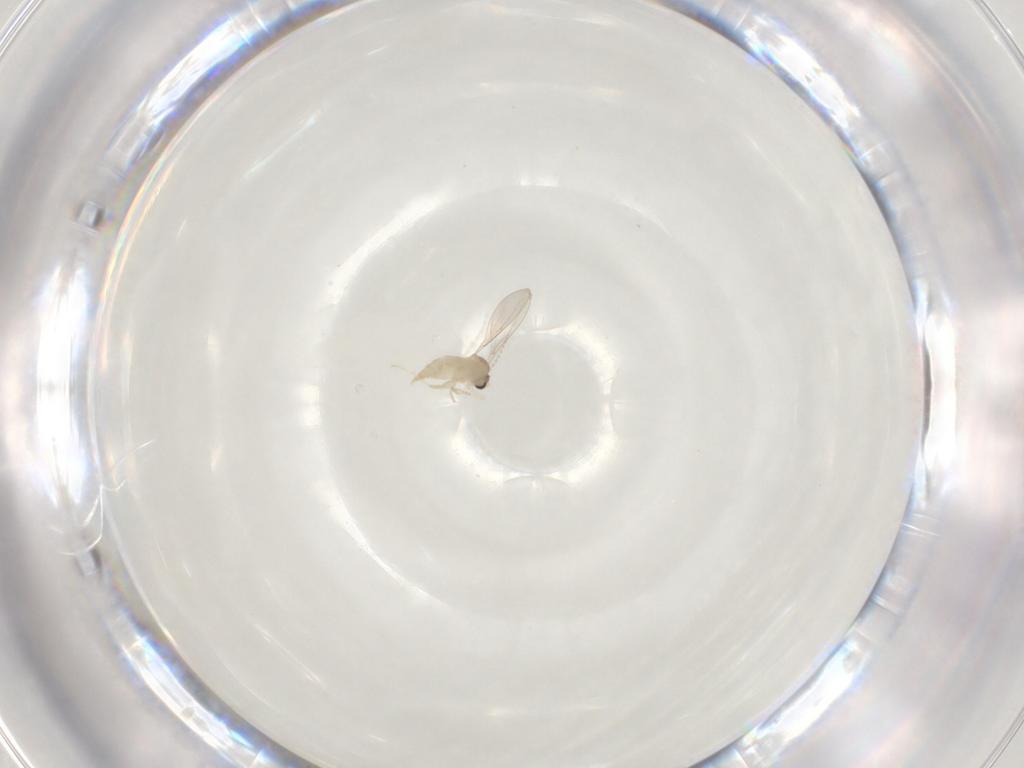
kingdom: Animalia
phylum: Arthropoda
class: Insecta
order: Diptera
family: Cecidomyiidae
